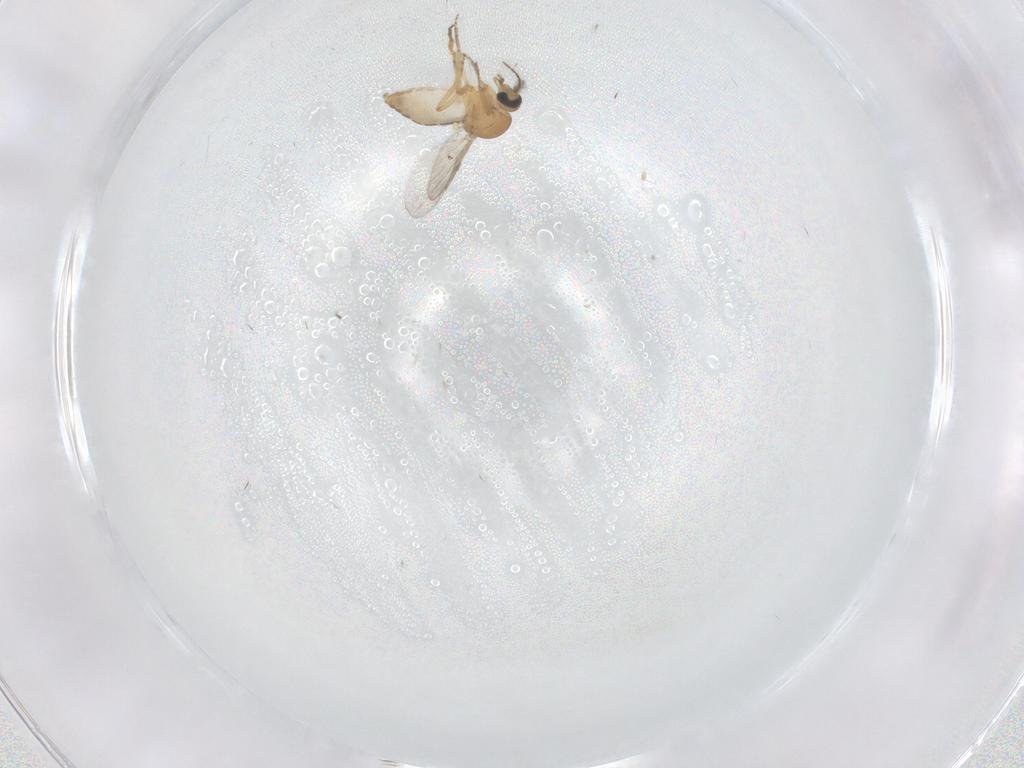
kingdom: Animalia
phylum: Arthropoda
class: Insecta
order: Diptera
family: Ceratopogonidae
